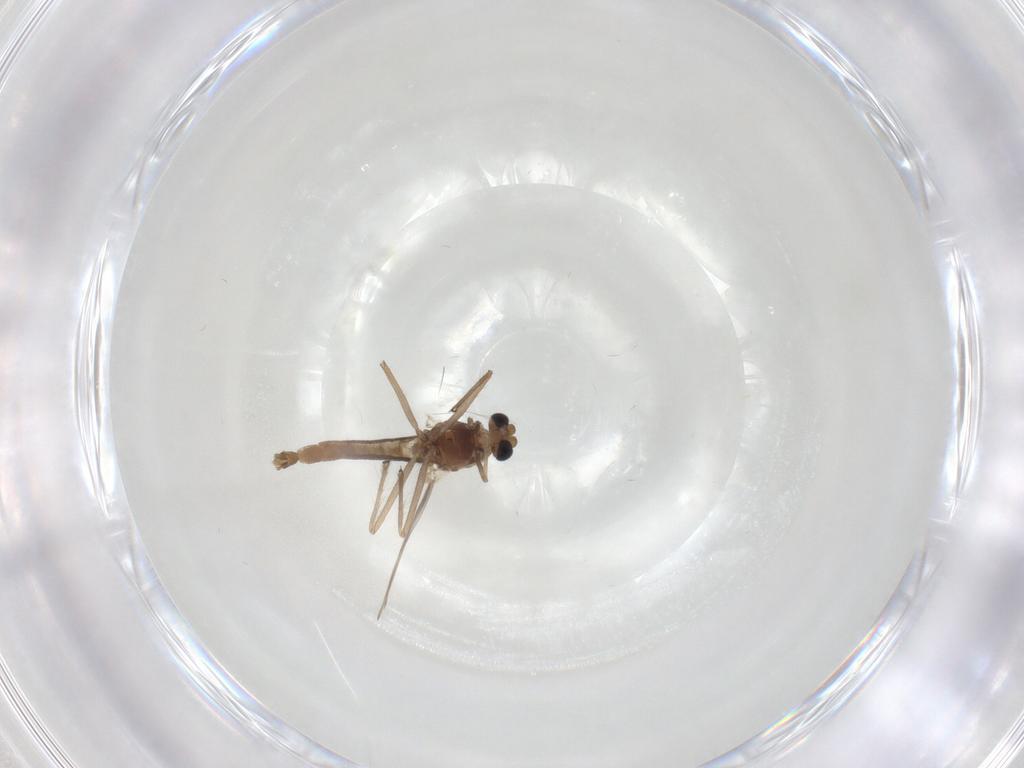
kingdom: Animalia
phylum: Arthropoda
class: Insecta
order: Diptera
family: Chironomidae
